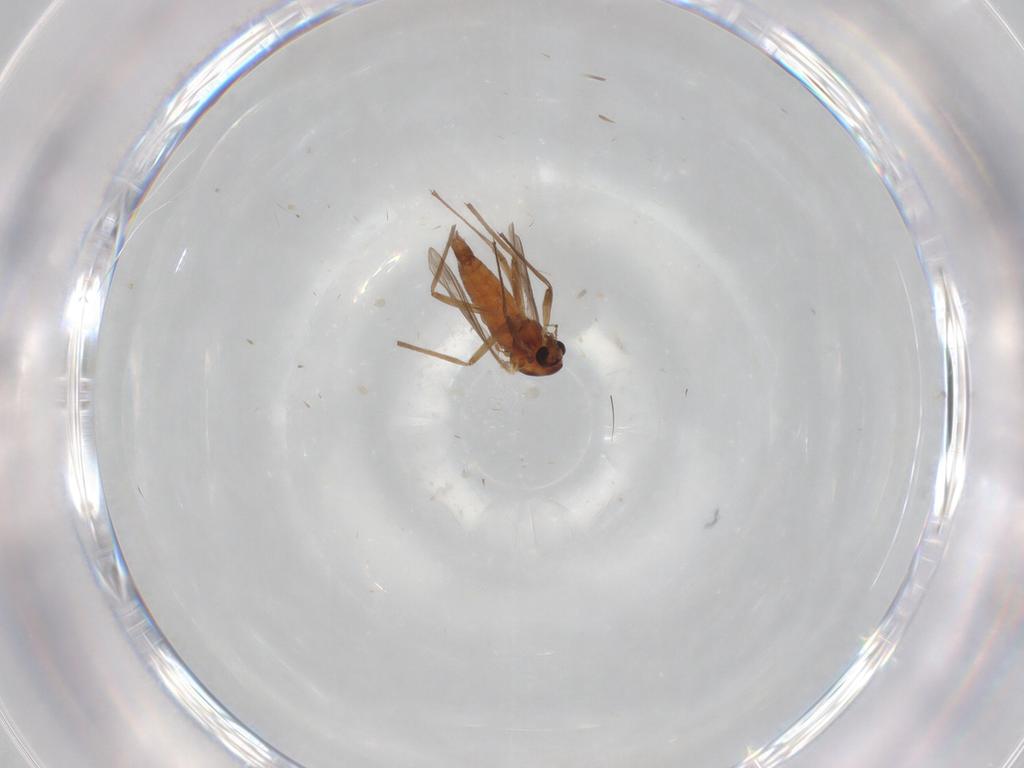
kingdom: Animalia
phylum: Arthropoda
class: Insecta
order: Diptera
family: Chironomidae
